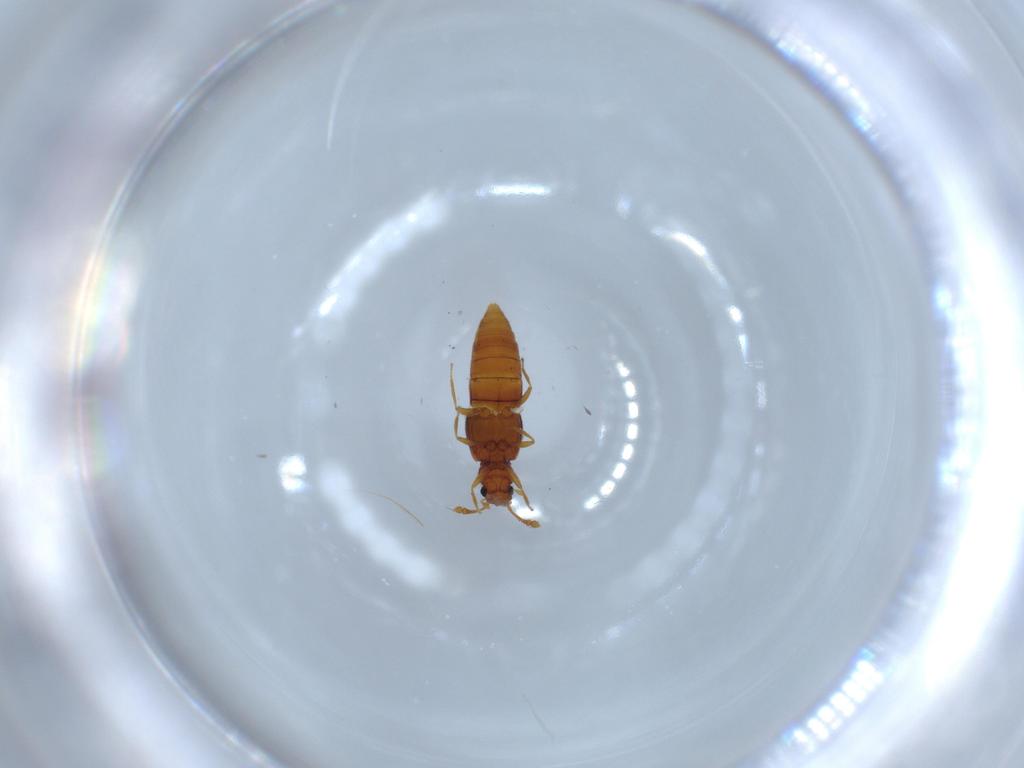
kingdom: Animalia
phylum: Arthropoda
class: Insecta
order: Coleoptera
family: Staphylinidae
